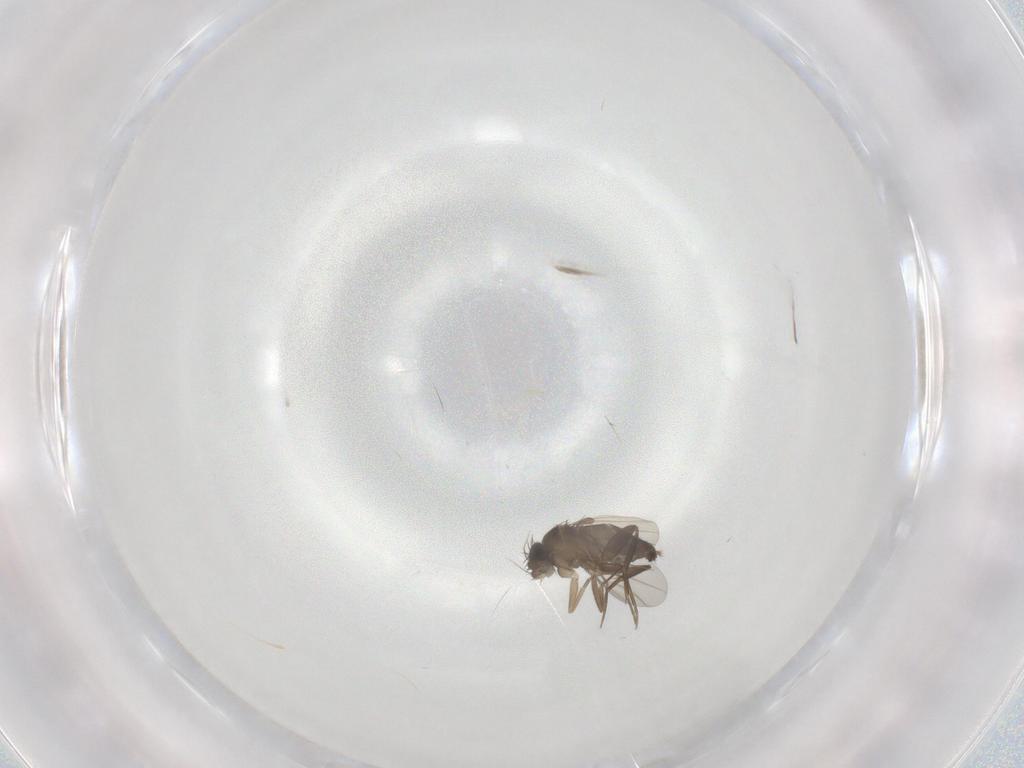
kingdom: Animalia
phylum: Arthropoda
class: Insecta
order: Diptera
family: Phoridae
